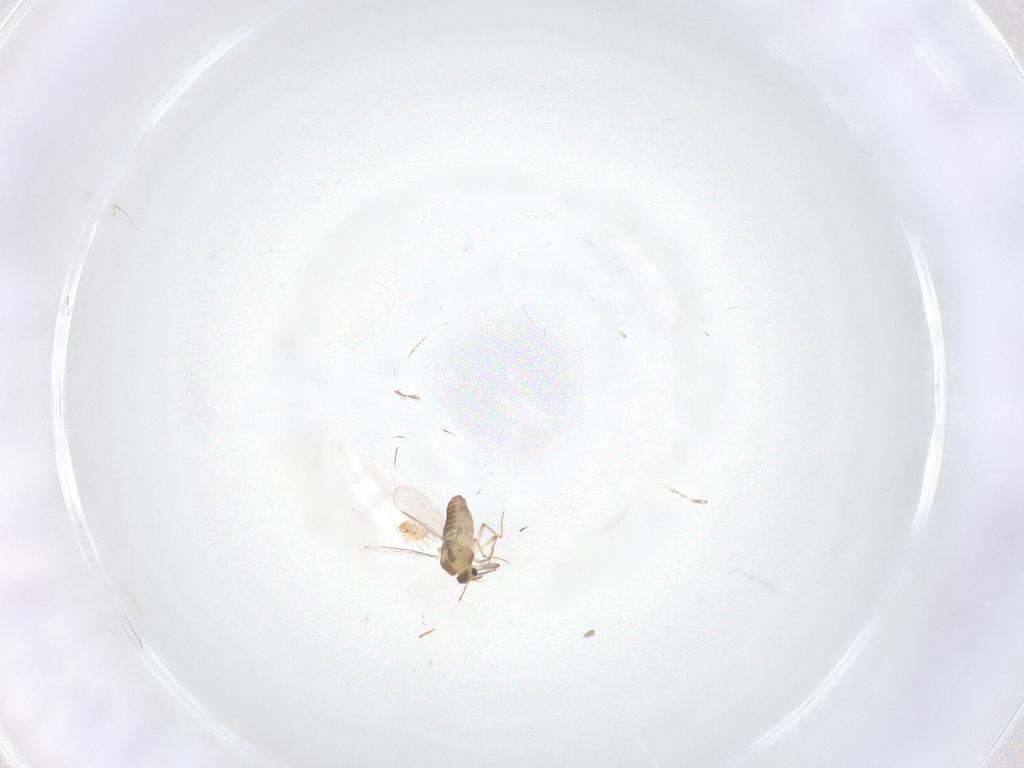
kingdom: Animalia
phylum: Arthropoda
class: Insecta
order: Diptera
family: Chironomidae
